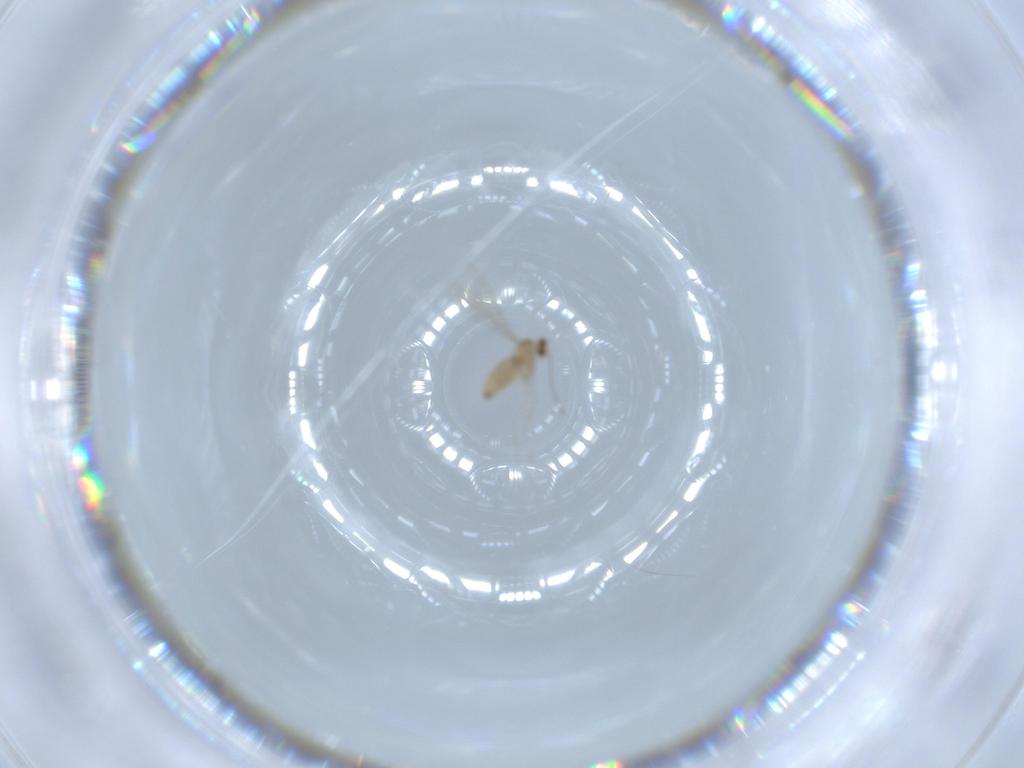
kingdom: Animalia
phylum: Arthropoda
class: Insecta
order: Diptera
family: Cecidomyiidae
